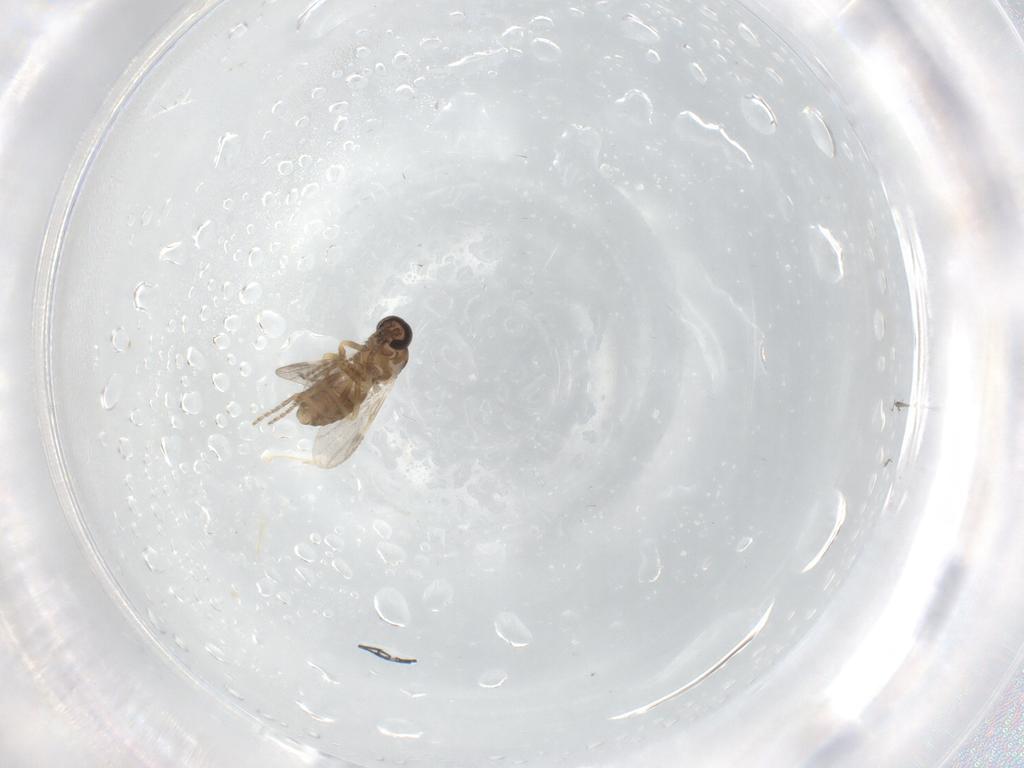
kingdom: Animalia
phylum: Arthropoda
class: Insecta
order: Diptera
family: Ceratopogonidae
